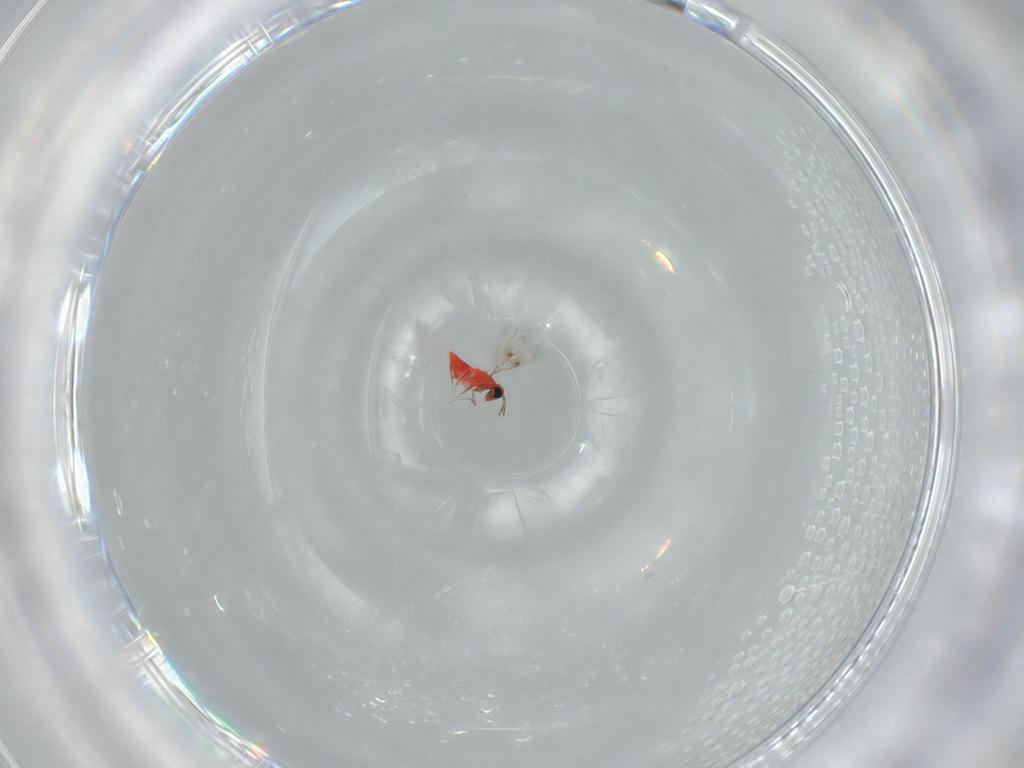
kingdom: Animalia
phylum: Arthropoda
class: Insecta
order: Hymenoptera
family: Trichogrammatidae
